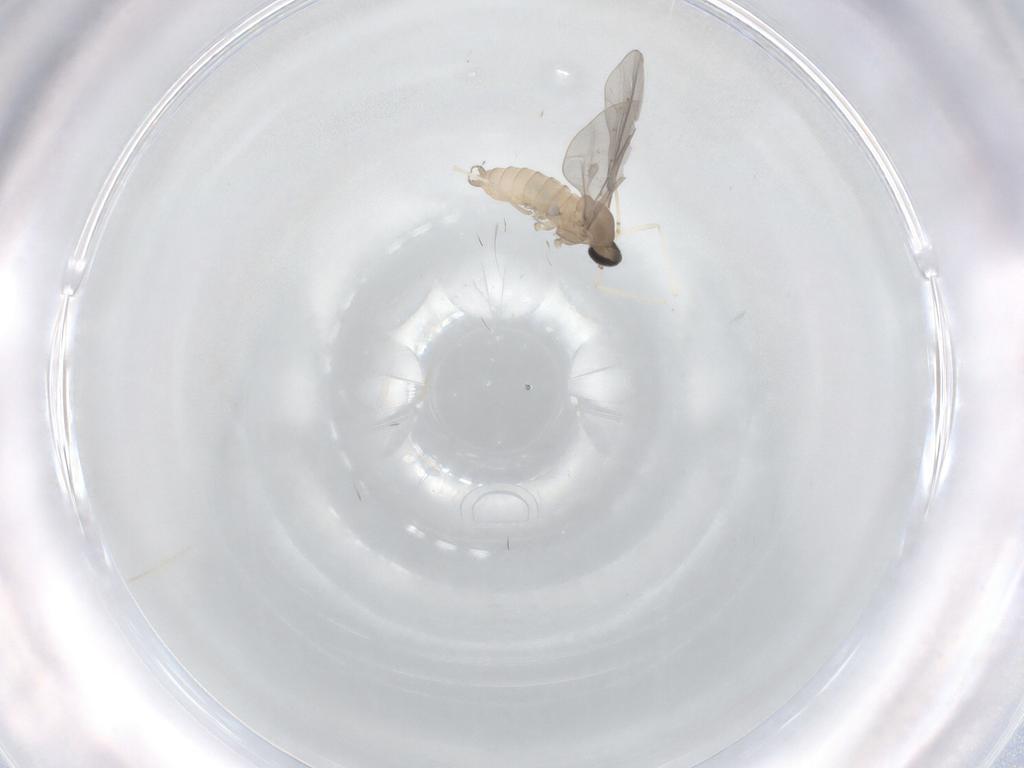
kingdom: Animalia
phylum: Arthropoda
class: Insecta
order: Diptera
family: Cecidomyiidae
